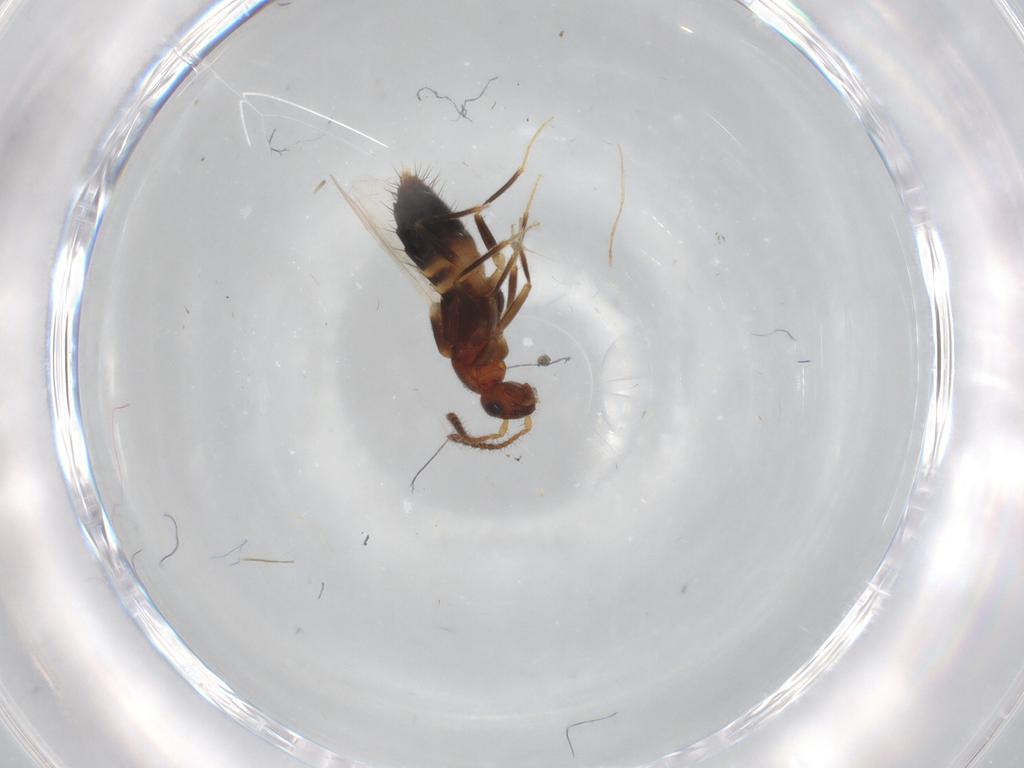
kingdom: Animalia
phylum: Arthropoda
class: Insecta
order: Coleoptera
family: Staphylinidae
